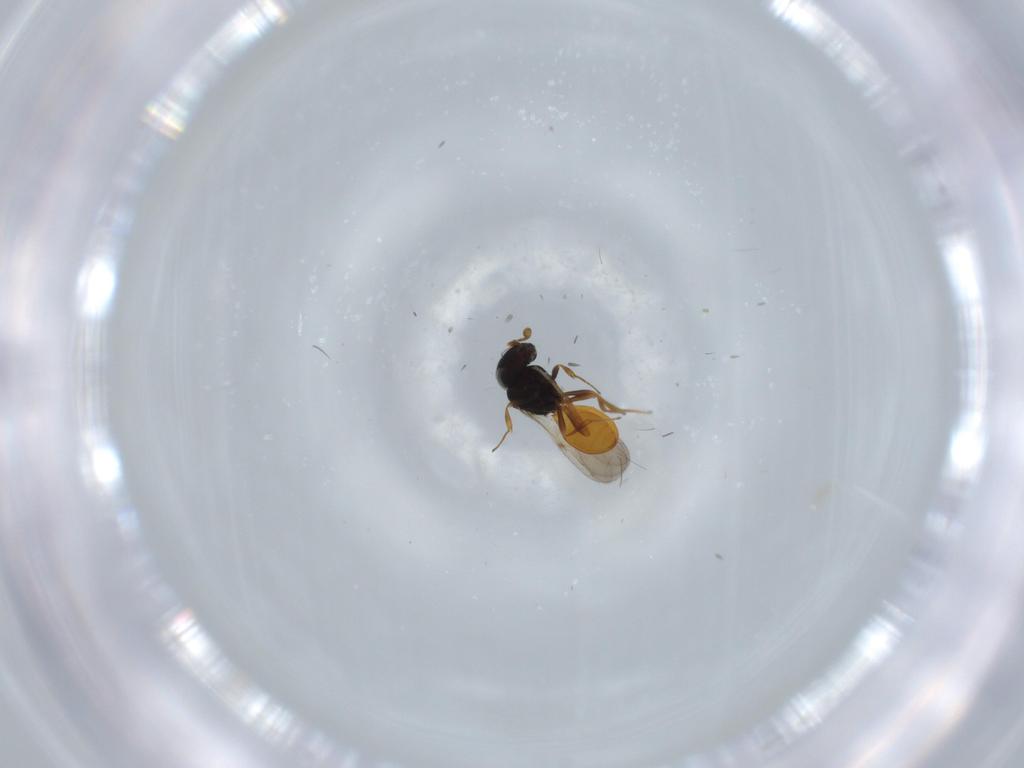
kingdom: Animalia
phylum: Arthropoda
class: Insecta
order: Hymenoptera
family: Scelionidae
